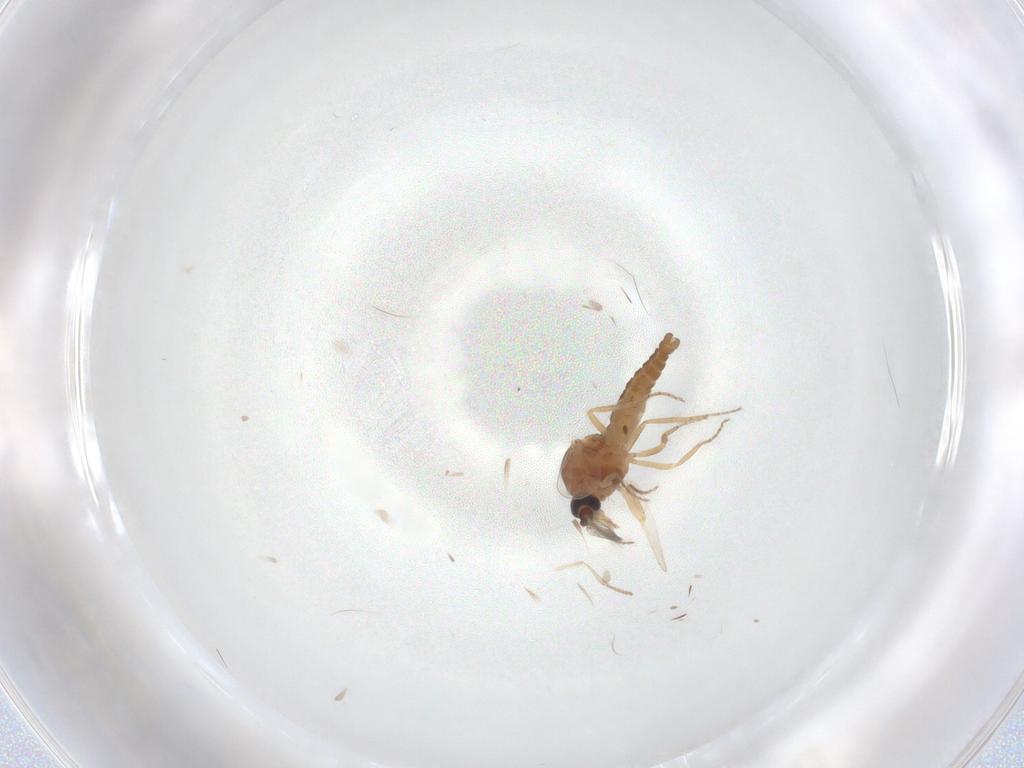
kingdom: Animalia
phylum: Arthropoda
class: Insecta
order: Diptera
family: Ceratopogonidae
